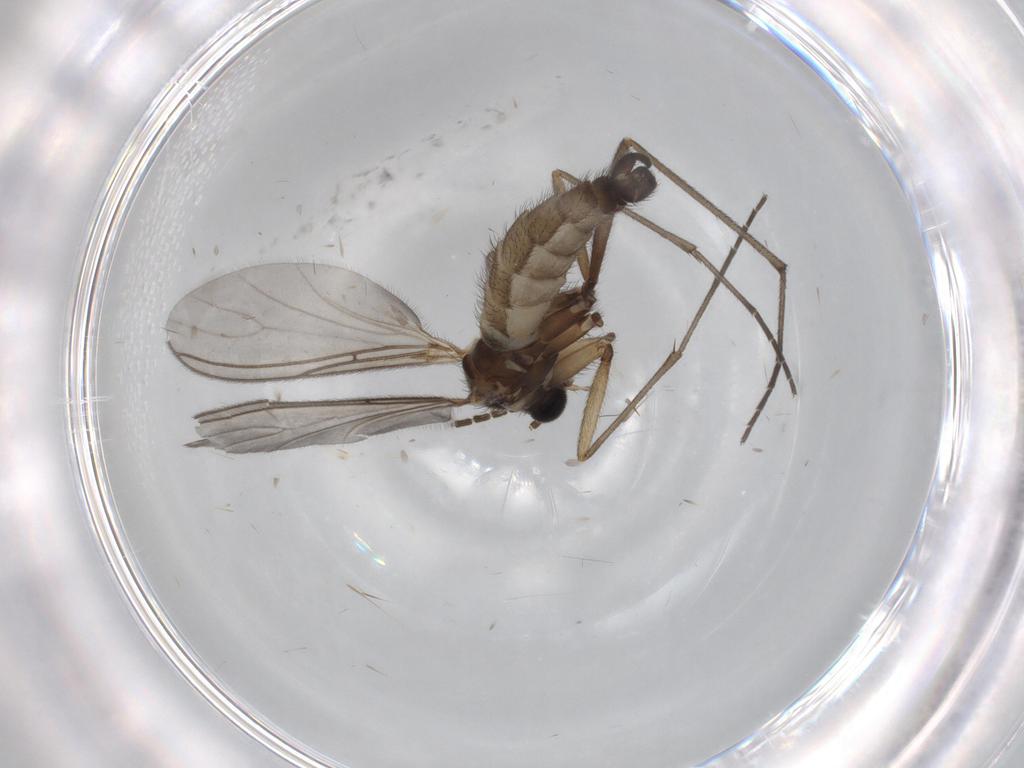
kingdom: Animalia
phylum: Arthropoda
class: Insecta
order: Diptera
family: Sciaridae
